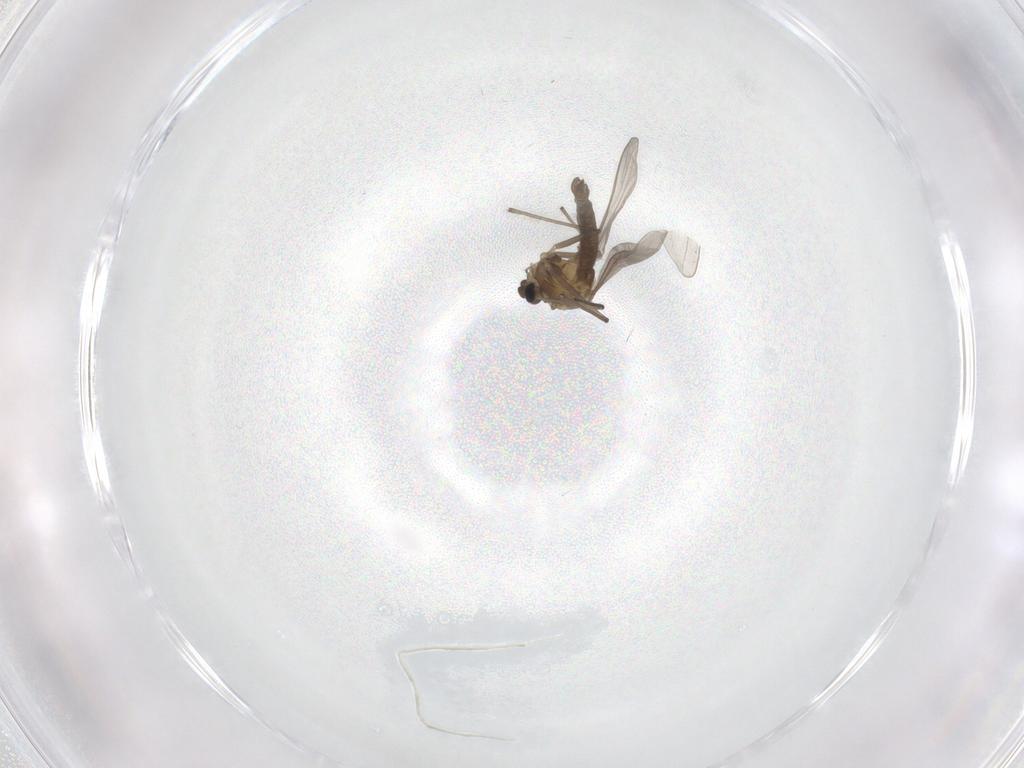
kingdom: Animalia
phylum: Arthropoda
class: Insecta
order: Diptera
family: Chironomidae
